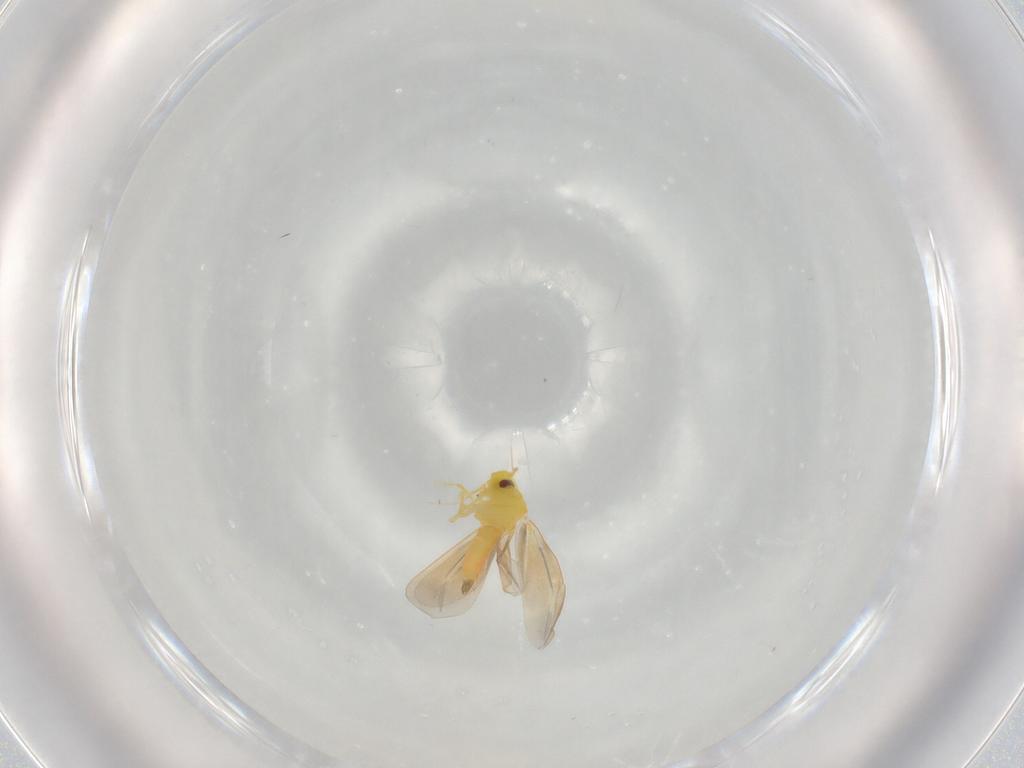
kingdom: Animalia
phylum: Arthropoda
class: Insecta
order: Hemiptera
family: Aleyrodidae
